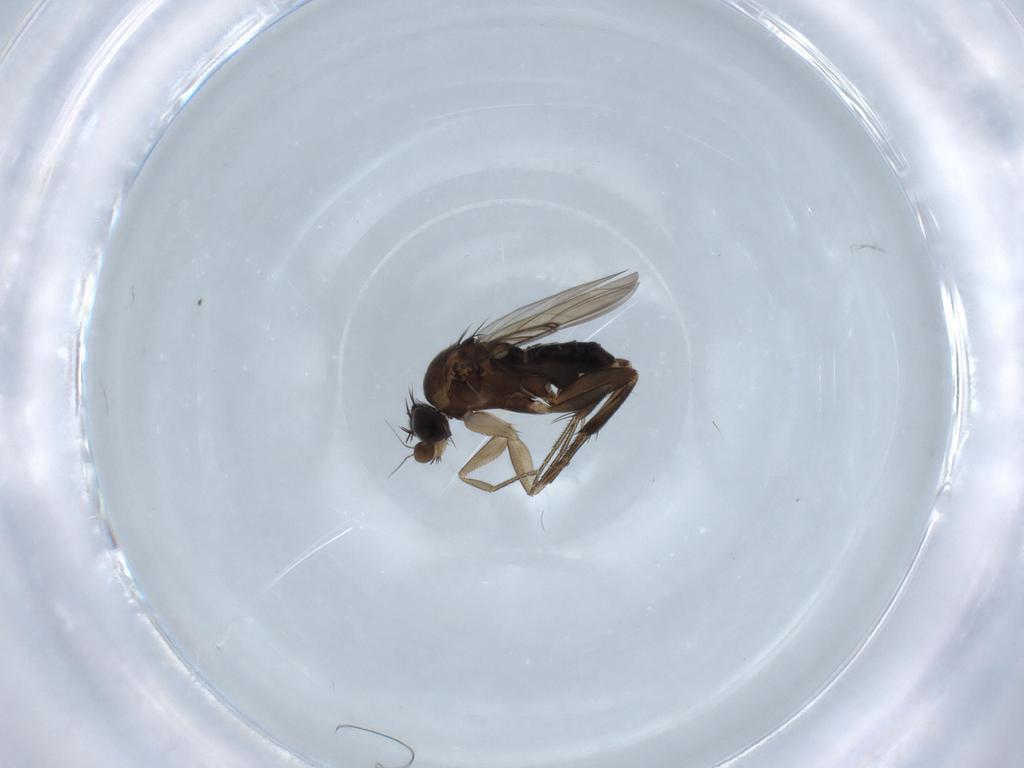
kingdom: Animalia
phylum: Arthropoda
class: Insecta
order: Diptera
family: Phoridae
